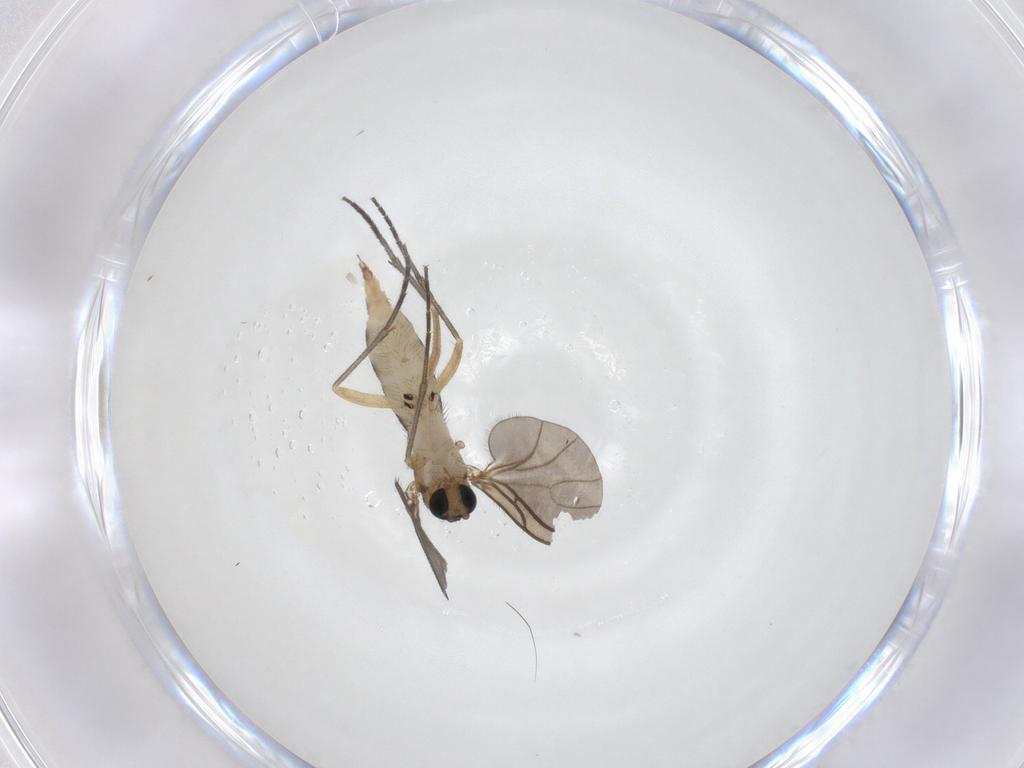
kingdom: Animalia
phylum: Arthropoda
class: Insecta
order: Diptera
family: Sciaridae
